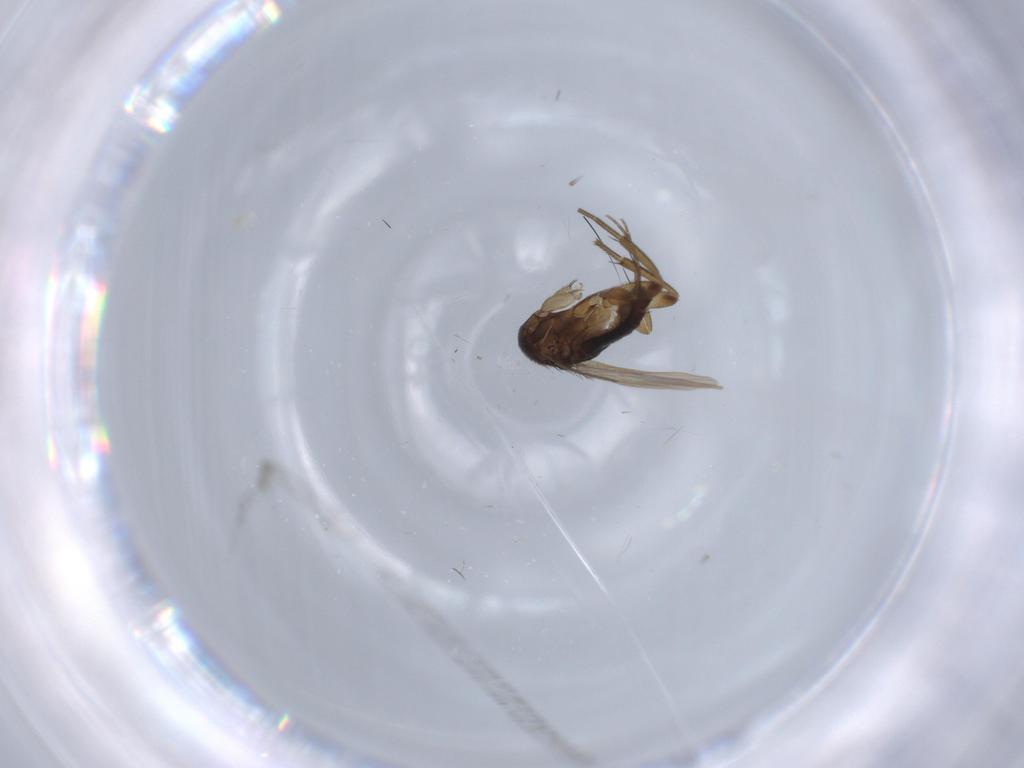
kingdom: Animalia
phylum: Arthropoda
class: Insecta
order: Diptera
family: Phoridae
